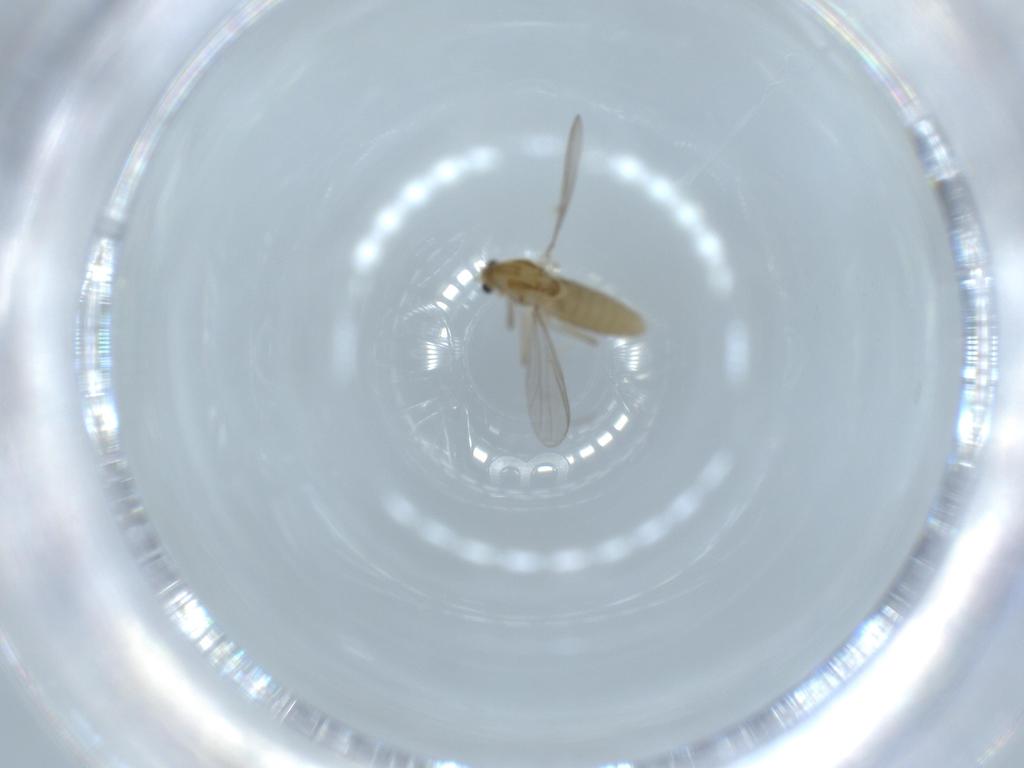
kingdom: Animalia
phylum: Arthropoda
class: Insecta
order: Diptera
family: Chironomidae
